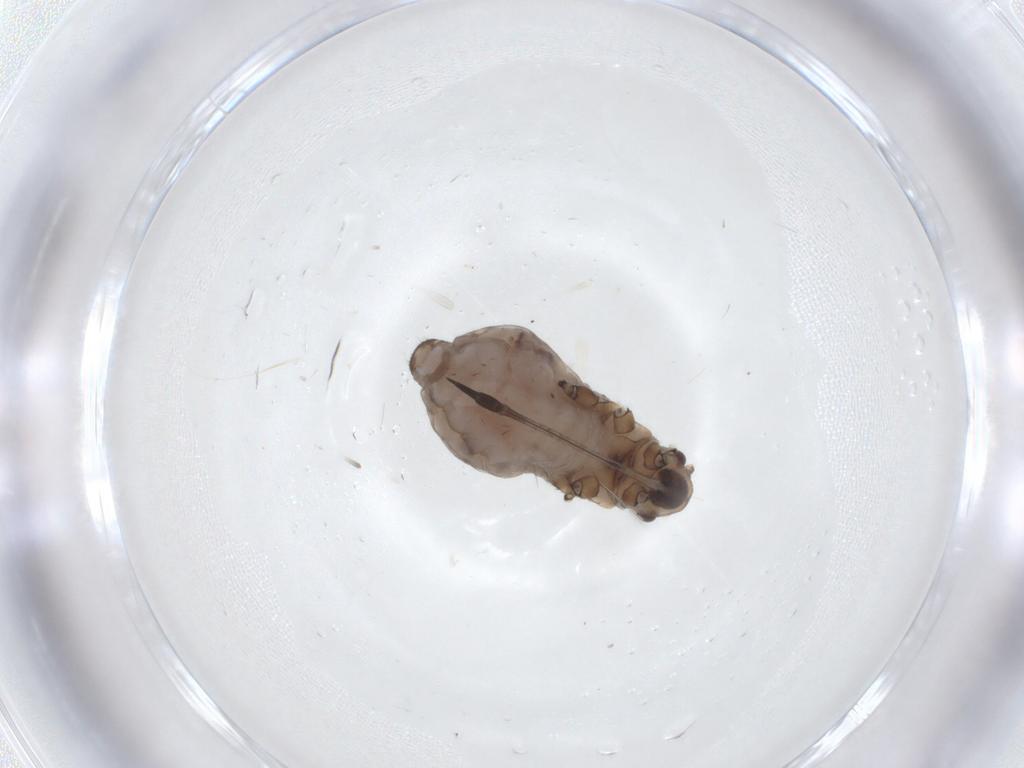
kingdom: Animalia
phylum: Arthropoda
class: Insecta
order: Hemiptera
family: Aphididae
